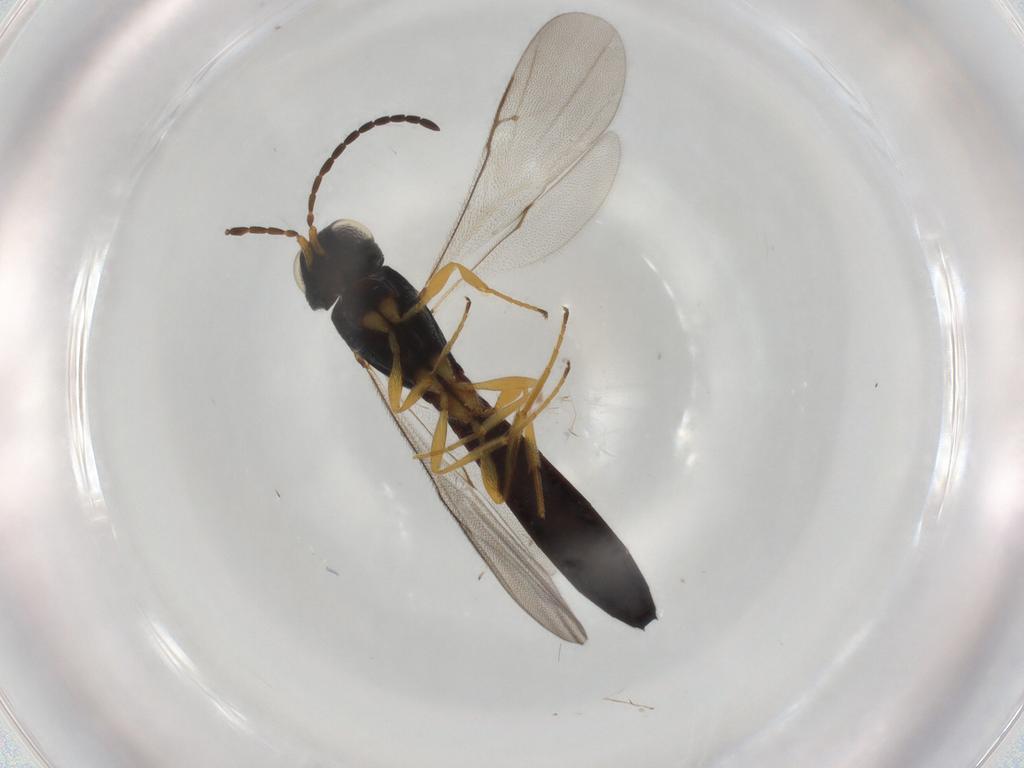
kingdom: Animalia
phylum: Arthropoda
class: Insecta
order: Hymenoptera
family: Scelionidae
